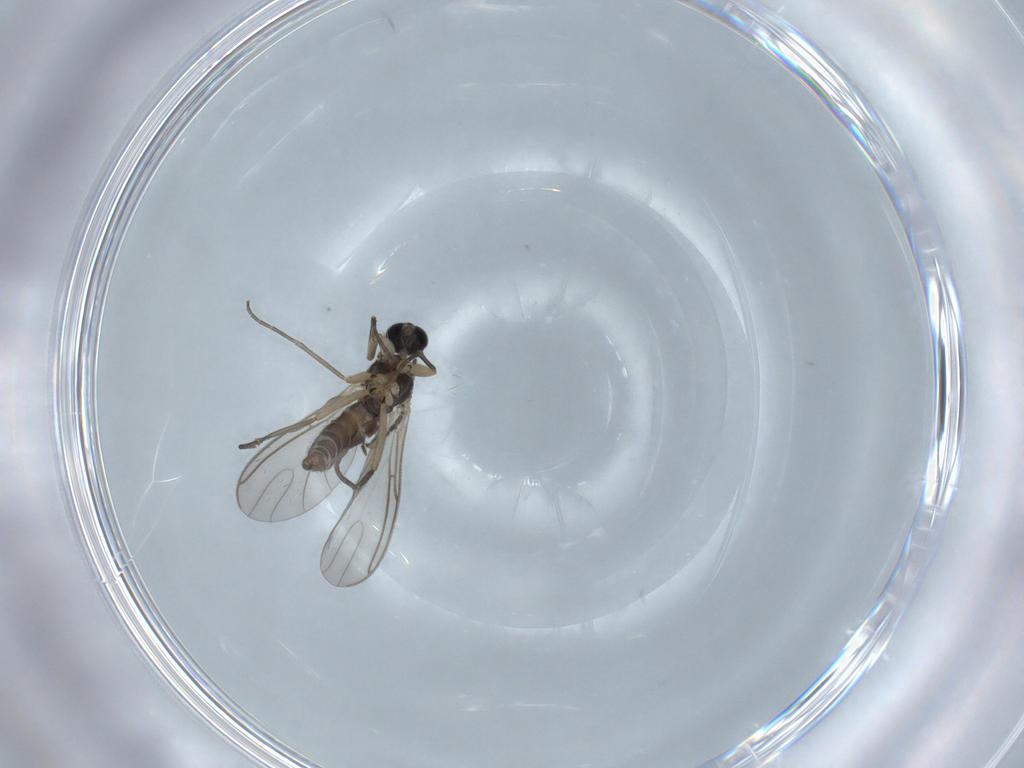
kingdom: Animalia
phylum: Arthropoda
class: Insecta
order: Diptera
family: Sciaridae
